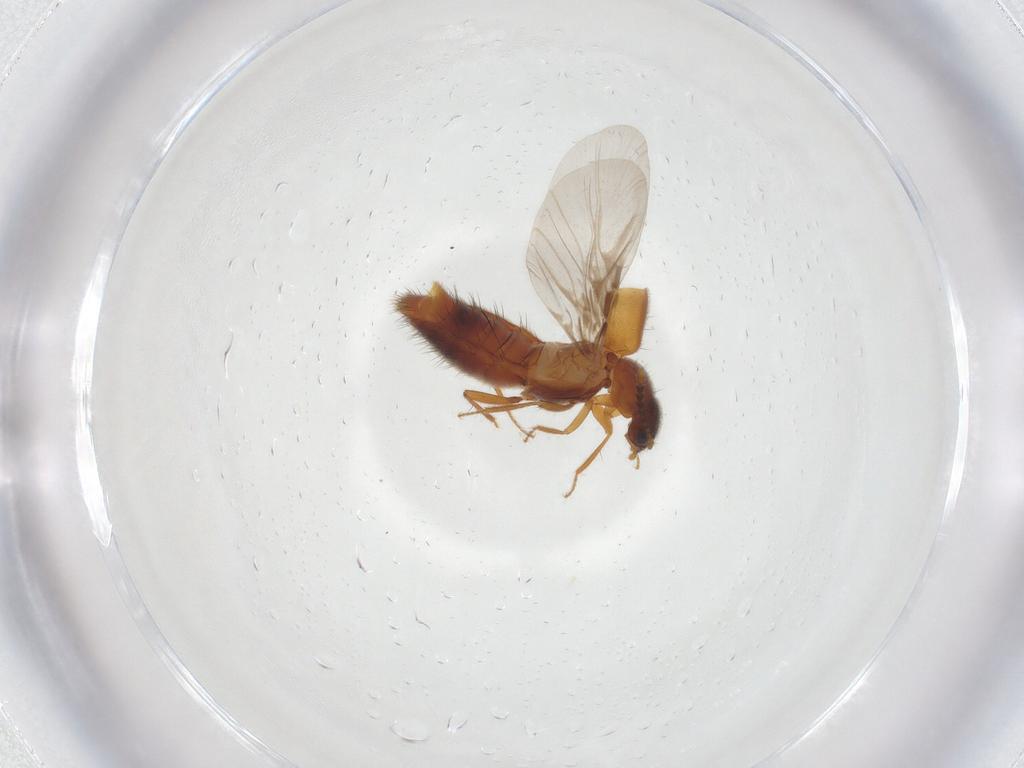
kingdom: Animalia
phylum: Arthropoda
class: Insecta
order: Coleoptera
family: Staphylinidae
